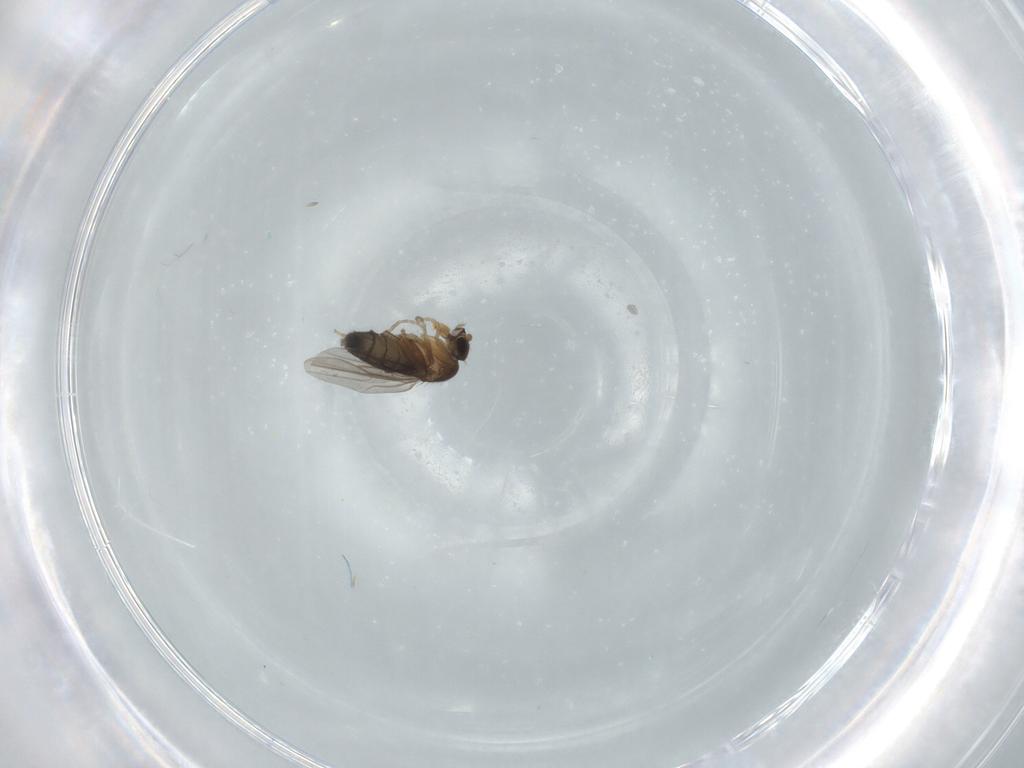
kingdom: Animalia
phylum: Arthropoda
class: Insecta
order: Diptera
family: Phoridae
